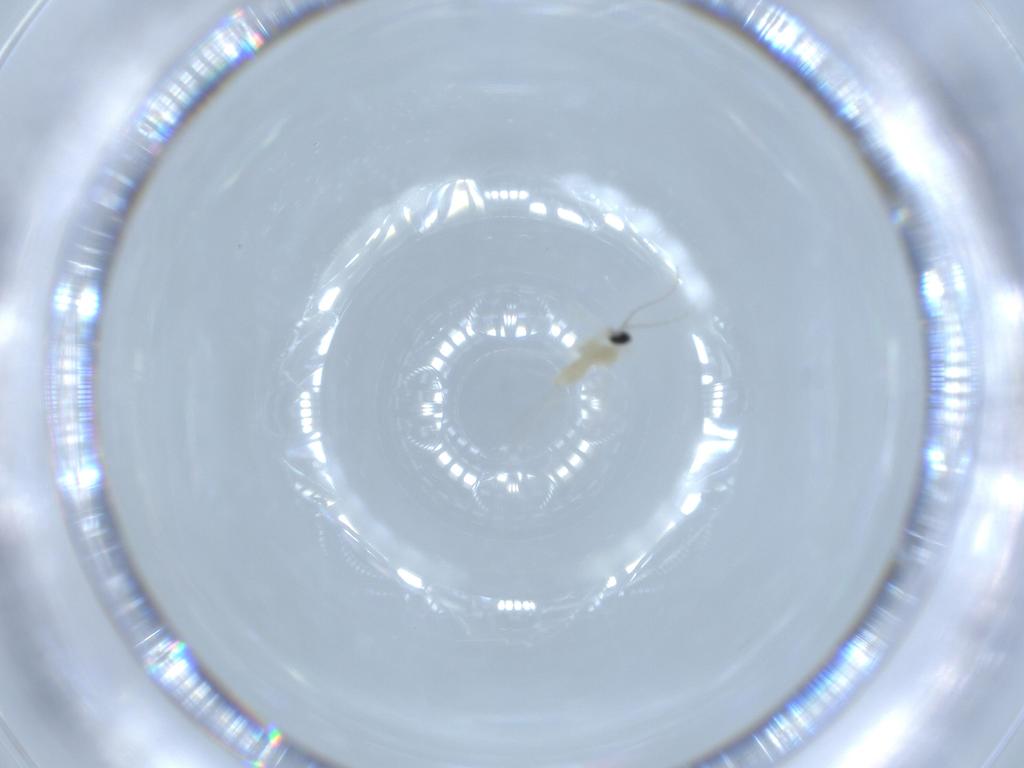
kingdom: Animalia
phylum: Arthropoda
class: Insecta
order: Diptera
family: Cecidomyiidae
